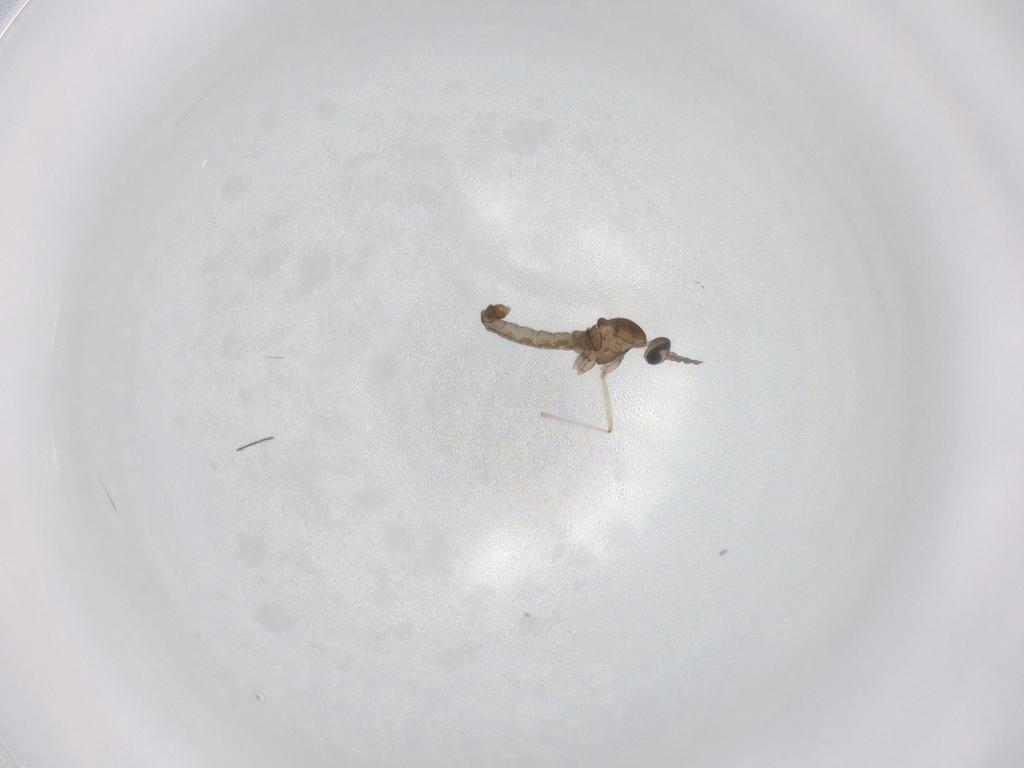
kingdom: Animalia
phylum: Arthropoda
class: Insecta
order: Diptera
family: Cecidomyiidae
